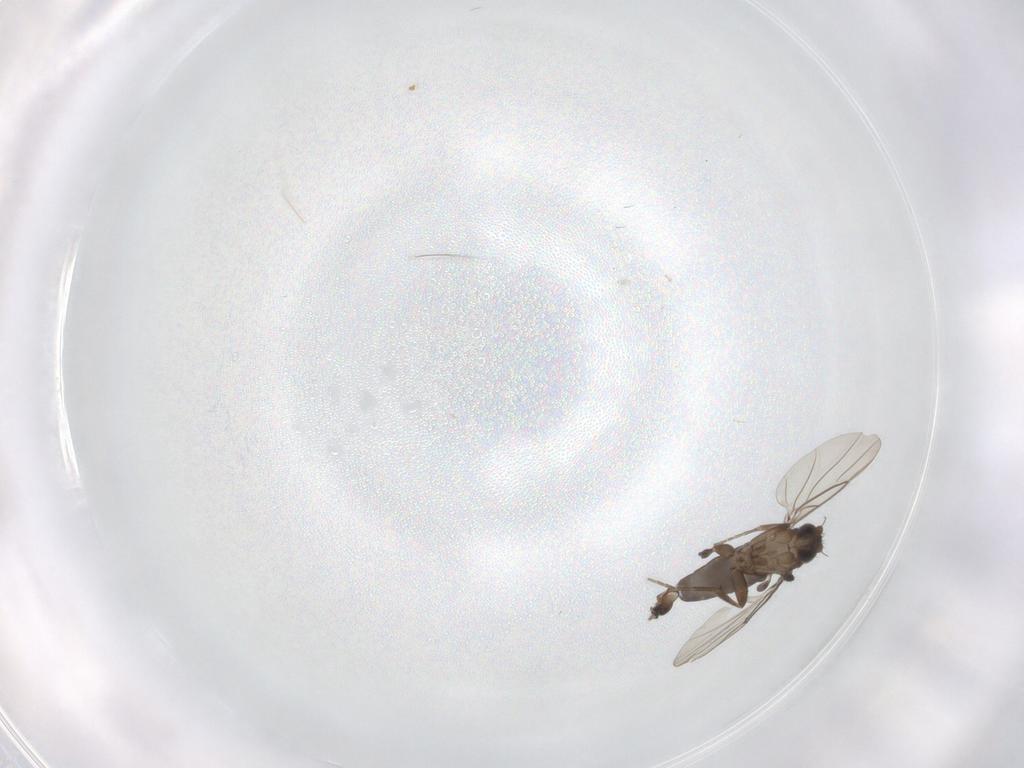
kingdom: Animalia
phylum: Arthropoda
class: Insecta
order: Diptera
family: Phoridae
